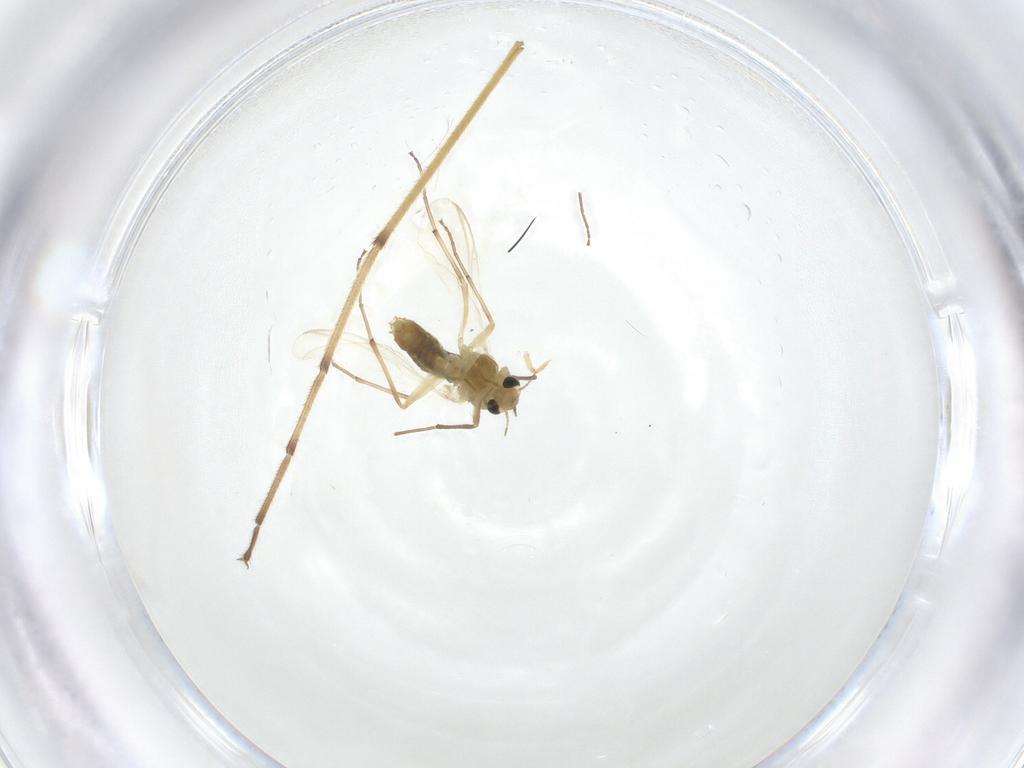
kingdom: Animalia
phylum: Arthropoda
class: Insecta
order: Diptera
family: Chironomidae
